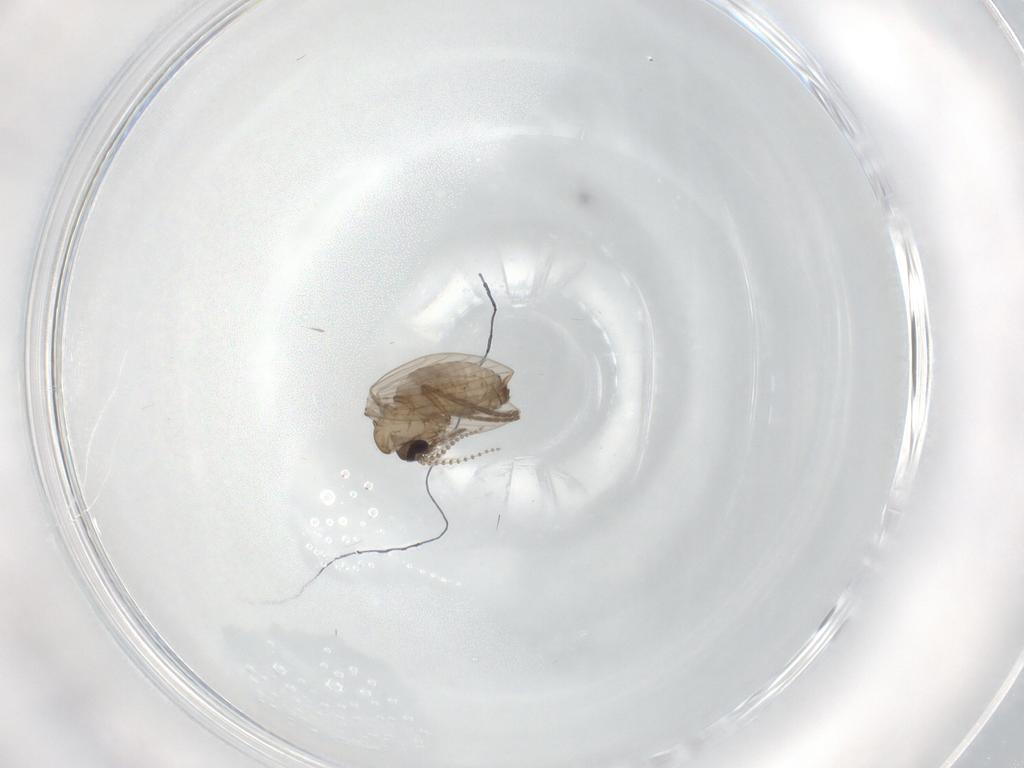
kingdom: Animalia
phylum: Arthropoda
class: Insecta
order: Diptera
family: Psychodidae
